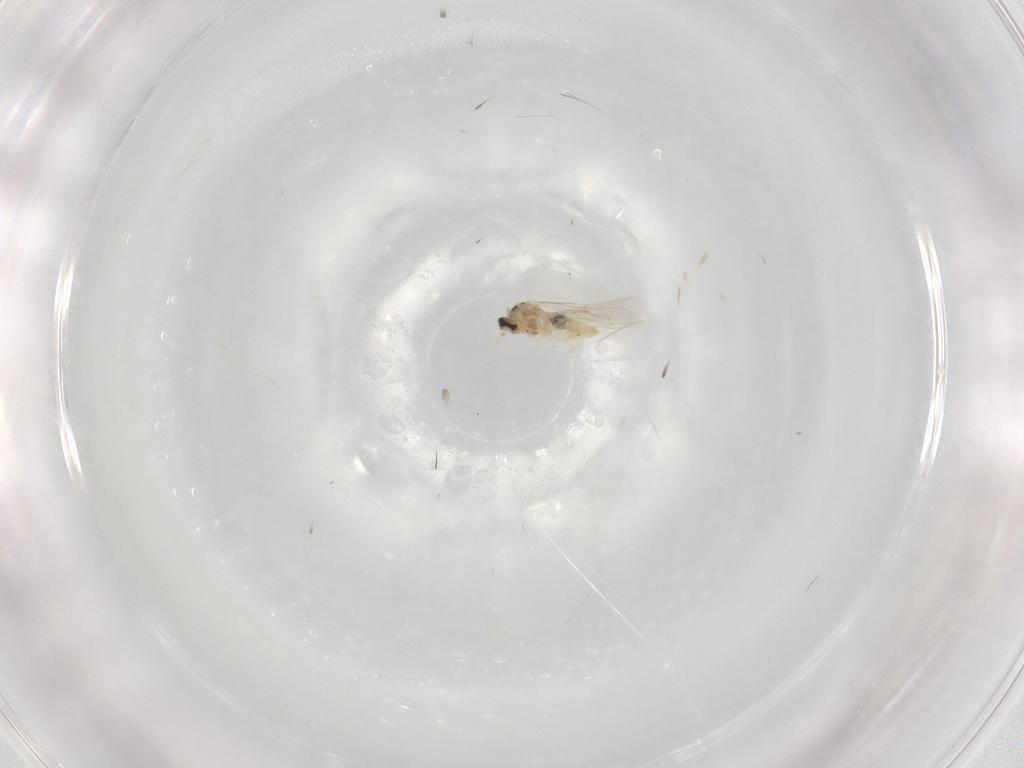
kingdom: Animalia
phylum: Arthropoda
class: Insecta
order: Diptera
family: Cecidomyiidae
